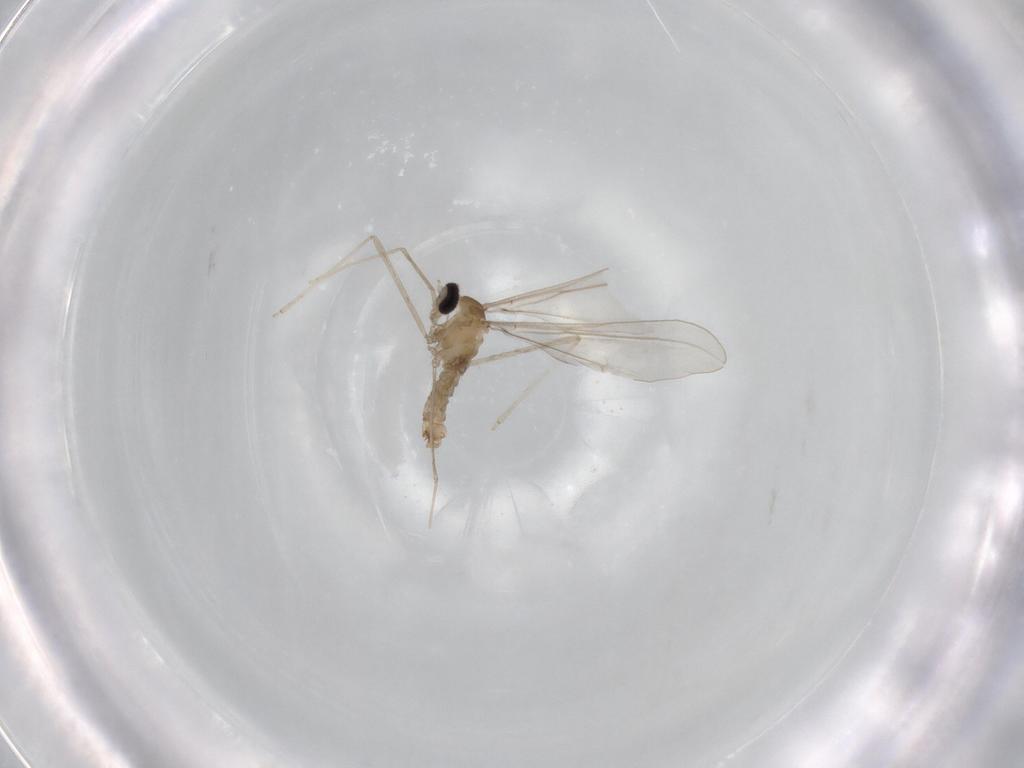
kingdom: Animalia
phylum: Arthropoda
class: Insecta
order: Diptera
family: Cecidomyiidae
